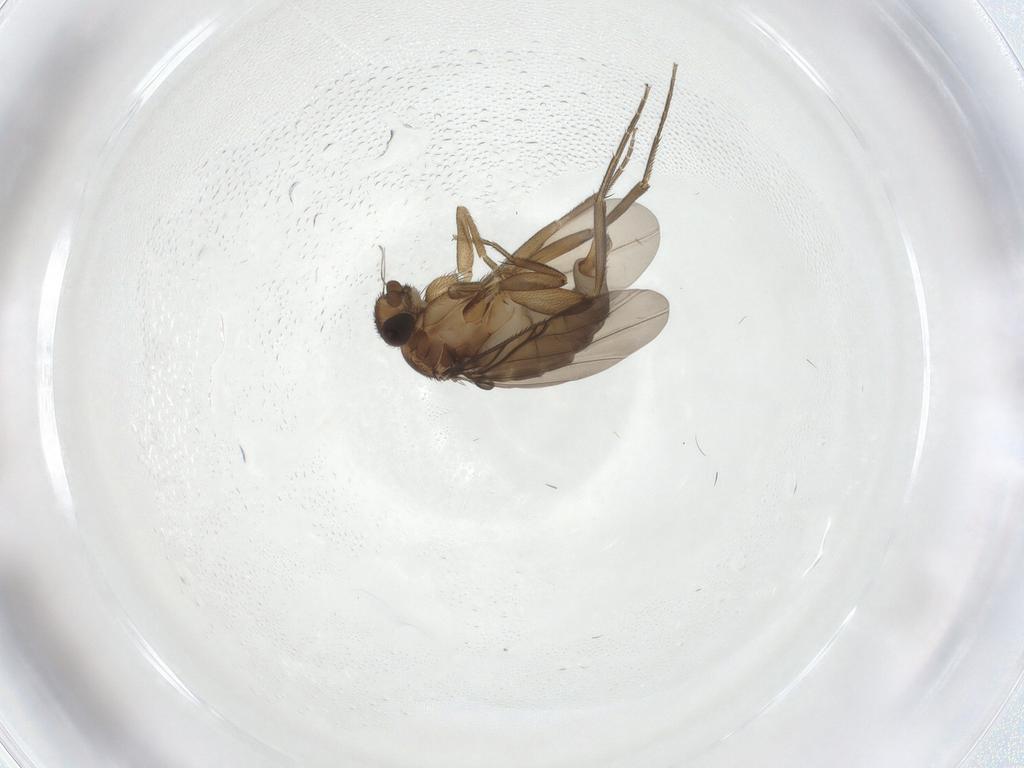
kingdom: Animalia
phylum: Arthropoda
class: Insecta
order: Diptera
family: Phoridae
